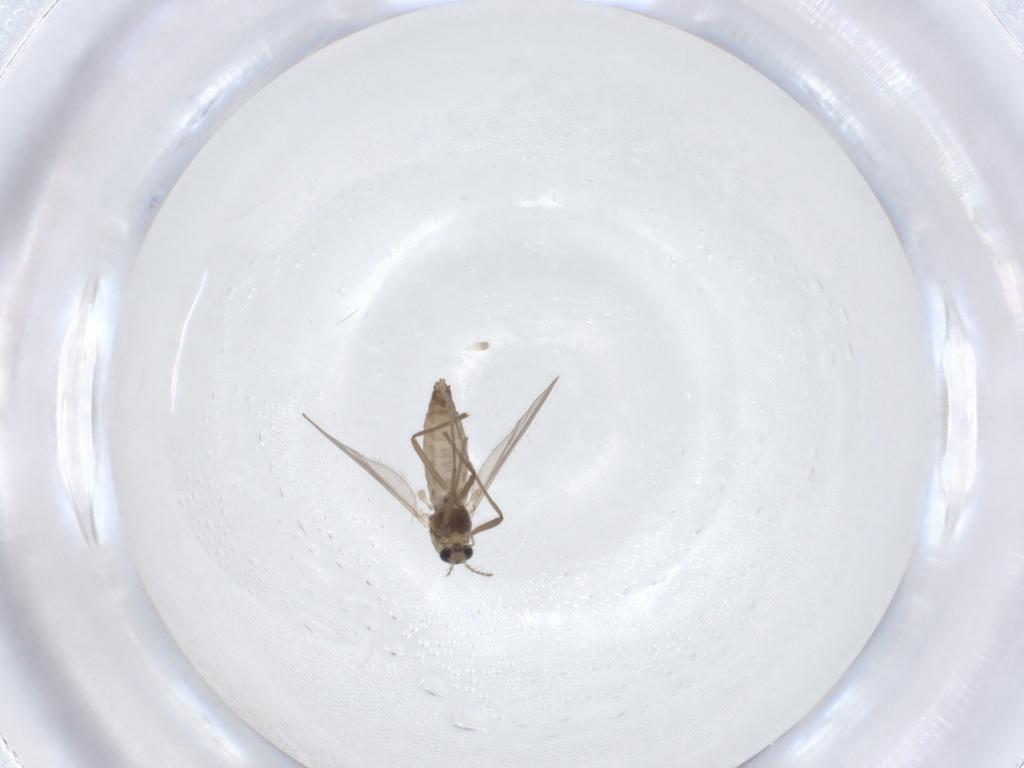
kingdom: Animalia
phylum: Arthropoda
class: Insecta
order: Diptera
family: Chironomidae
